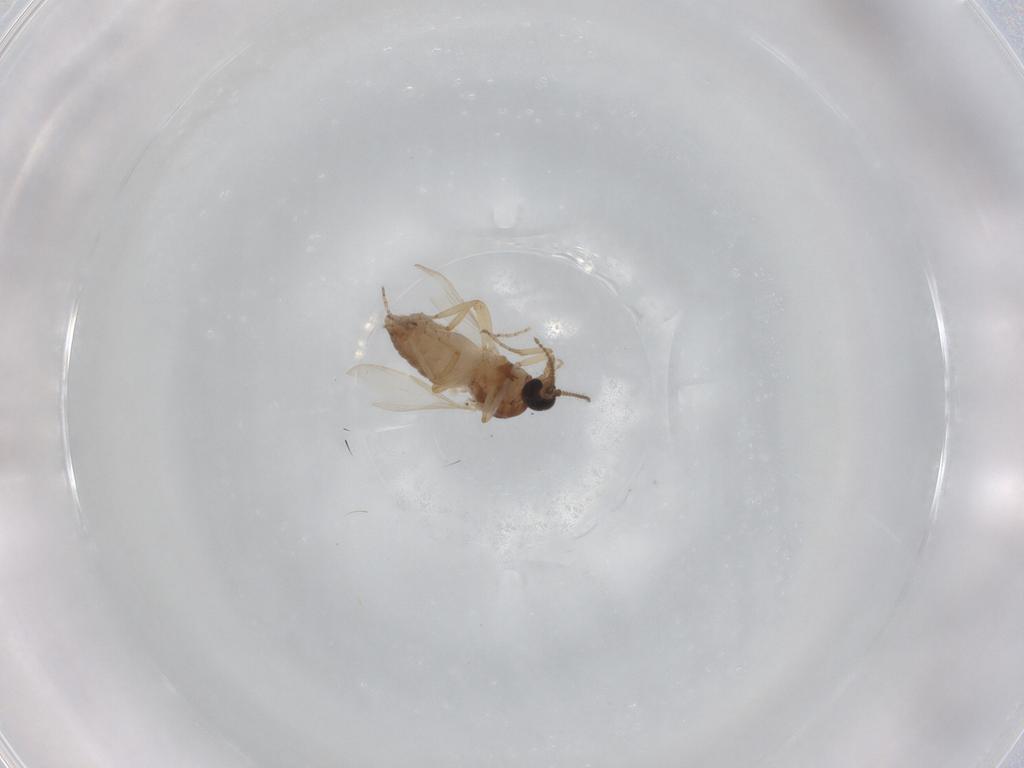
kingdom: Animalia
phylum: Arthropoda
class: Insecta
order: Diptera
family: Ceratopogonidae
